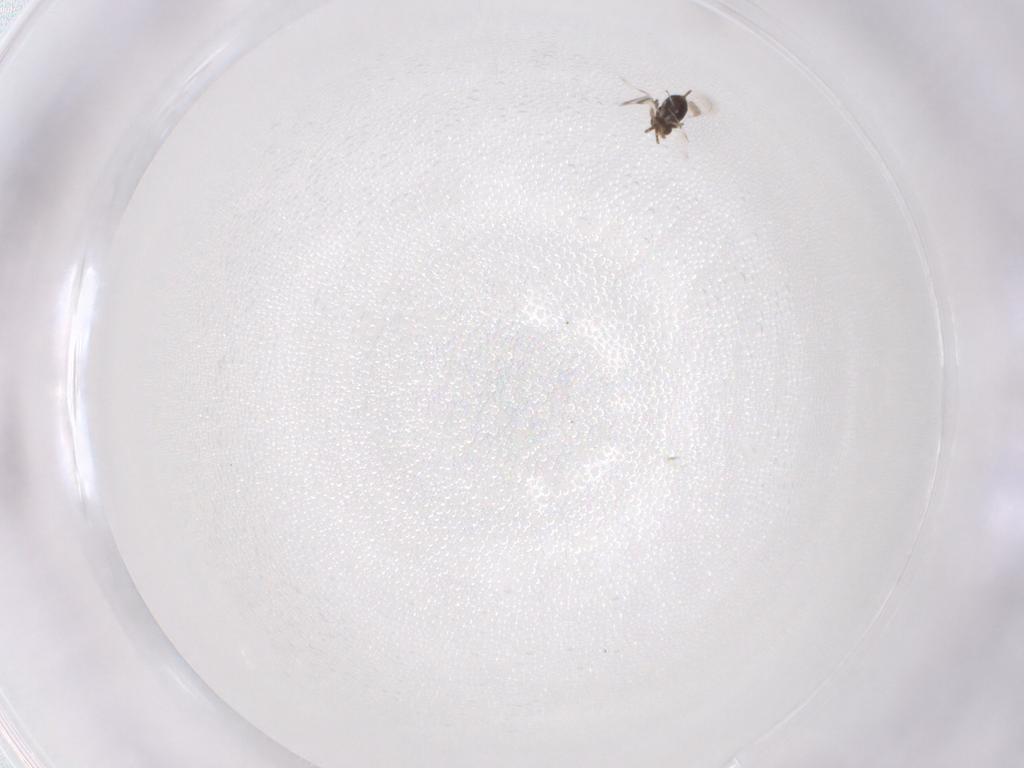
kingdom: Animalia
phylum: Arthropoda
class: Insecta
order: Hymenoptera
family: Azotidae
